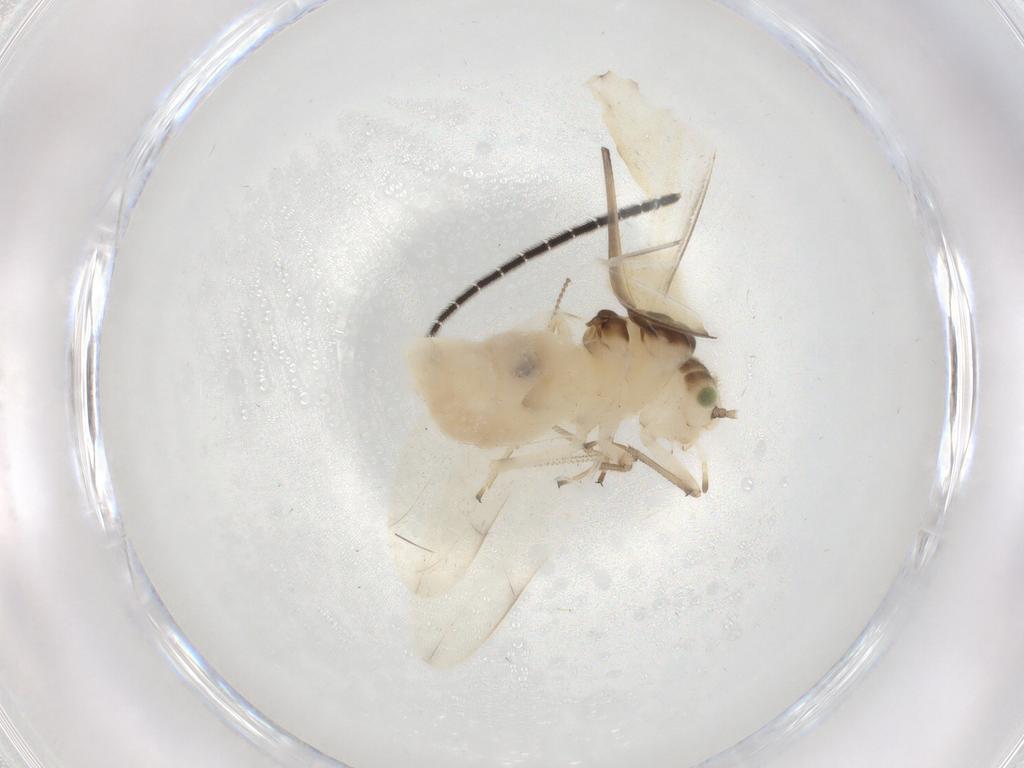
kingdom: Animalia
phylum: Arthropoda
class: Insecta
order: Psocodea
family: Caeciliusidae
